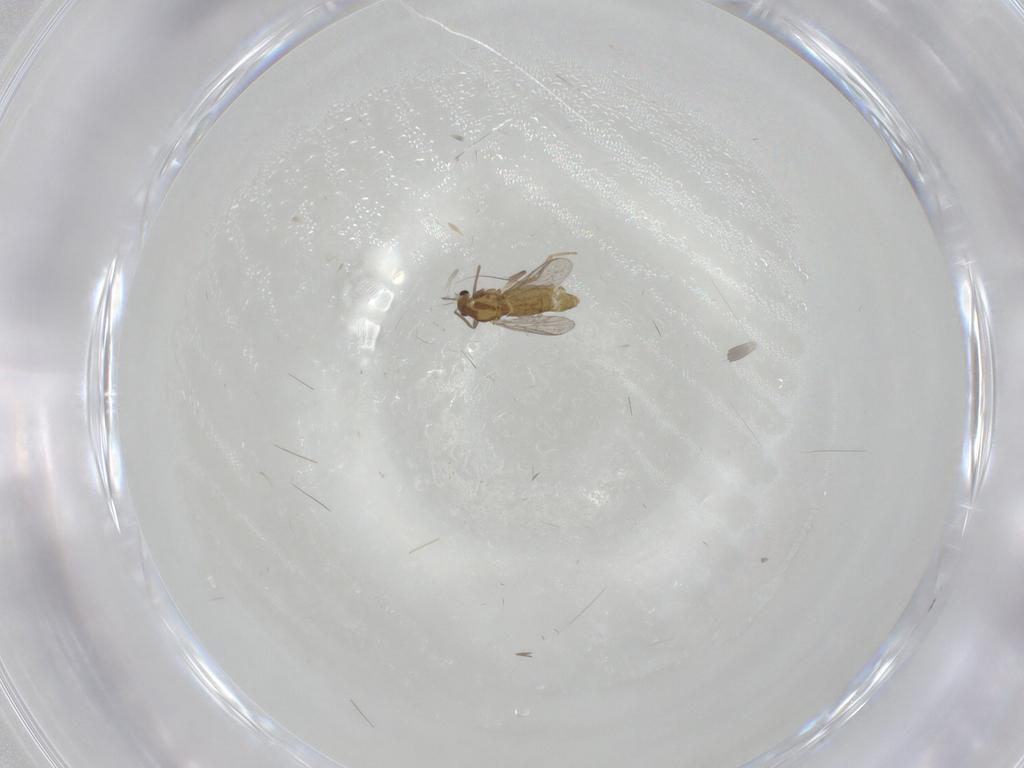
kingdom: Animalia
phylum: Arthropoda
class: Insecta
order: Diptera
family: Chironomidae
